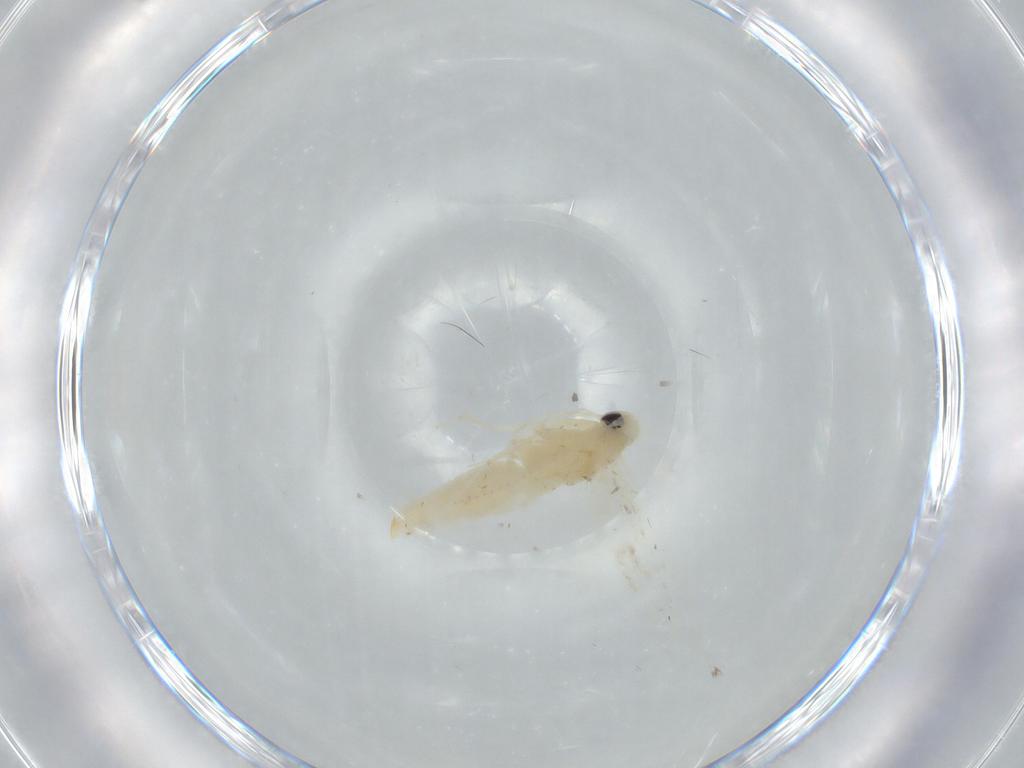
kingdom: Animalia
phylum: Arthropoda
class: Insecta
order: Lepidoptera
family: Gracillariidae
